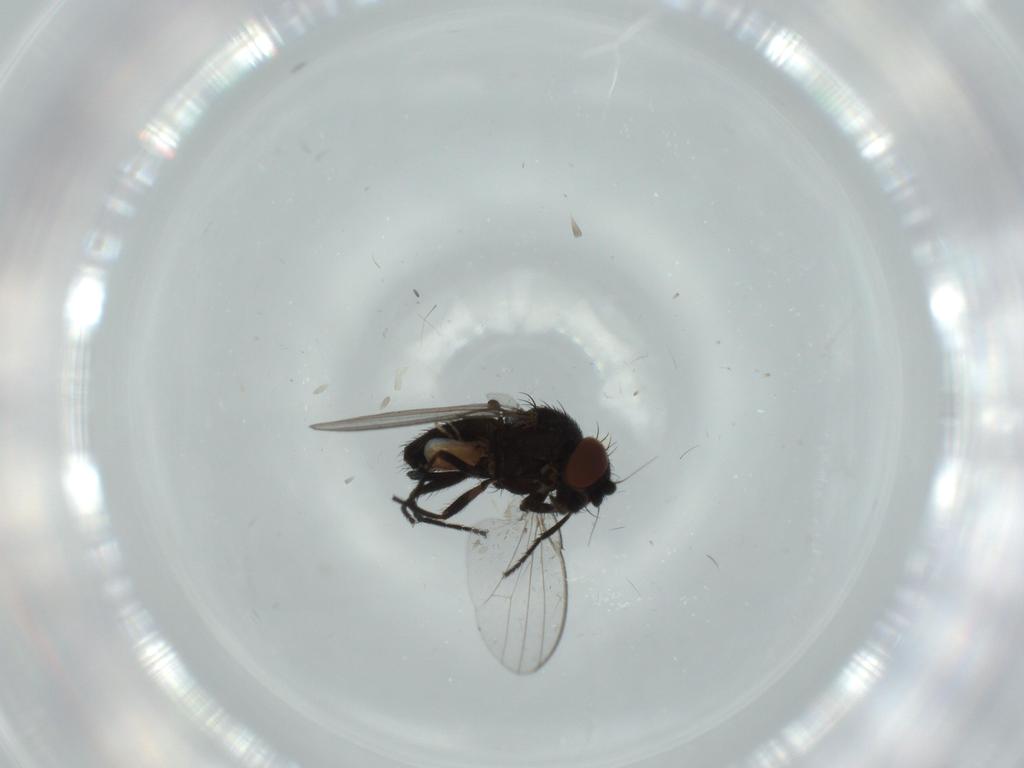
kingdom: Animalia
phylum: Arthropoda
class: Insecta
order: Diptera
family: Milichiidae
